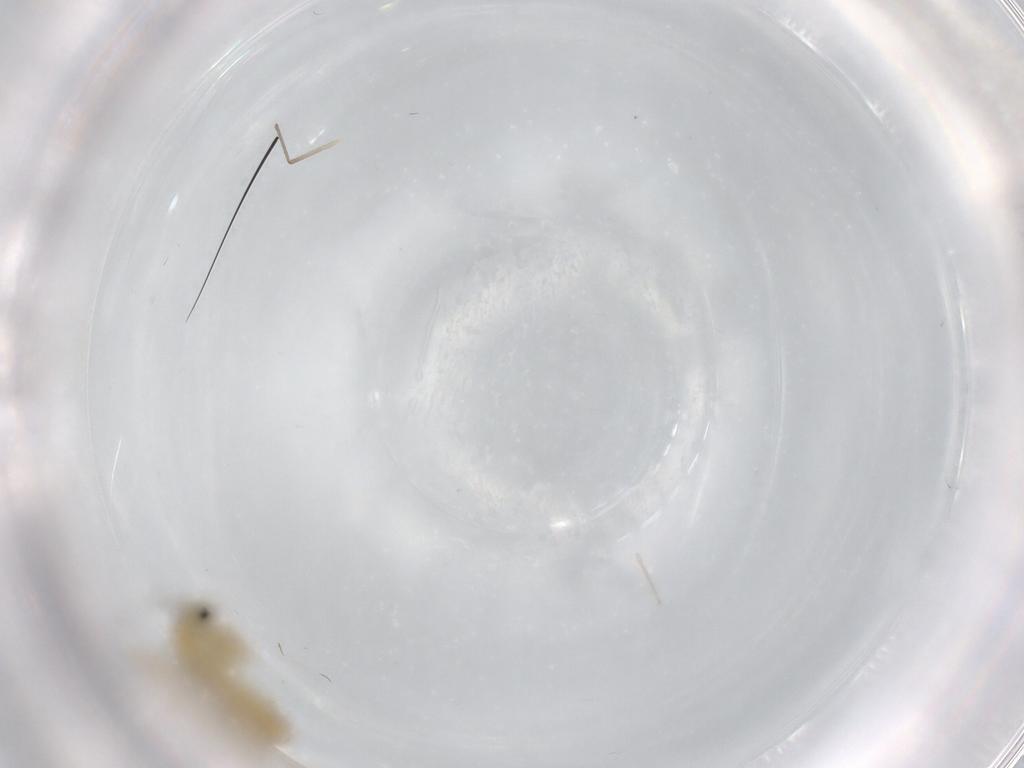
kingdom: Animalia
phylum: Arthropoda
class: Insecta
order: Diptera
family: Chironomidae
